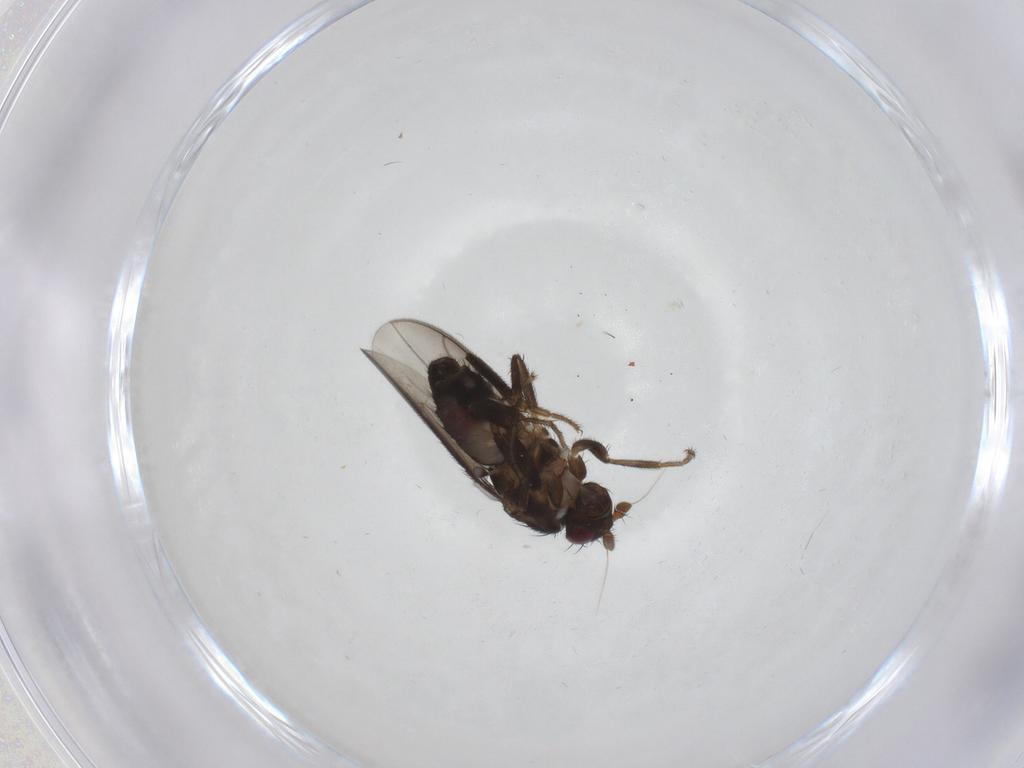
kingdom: Animalia
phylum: Arthropoda
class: Insecta
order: Diptera
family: Sphaeroceridae
